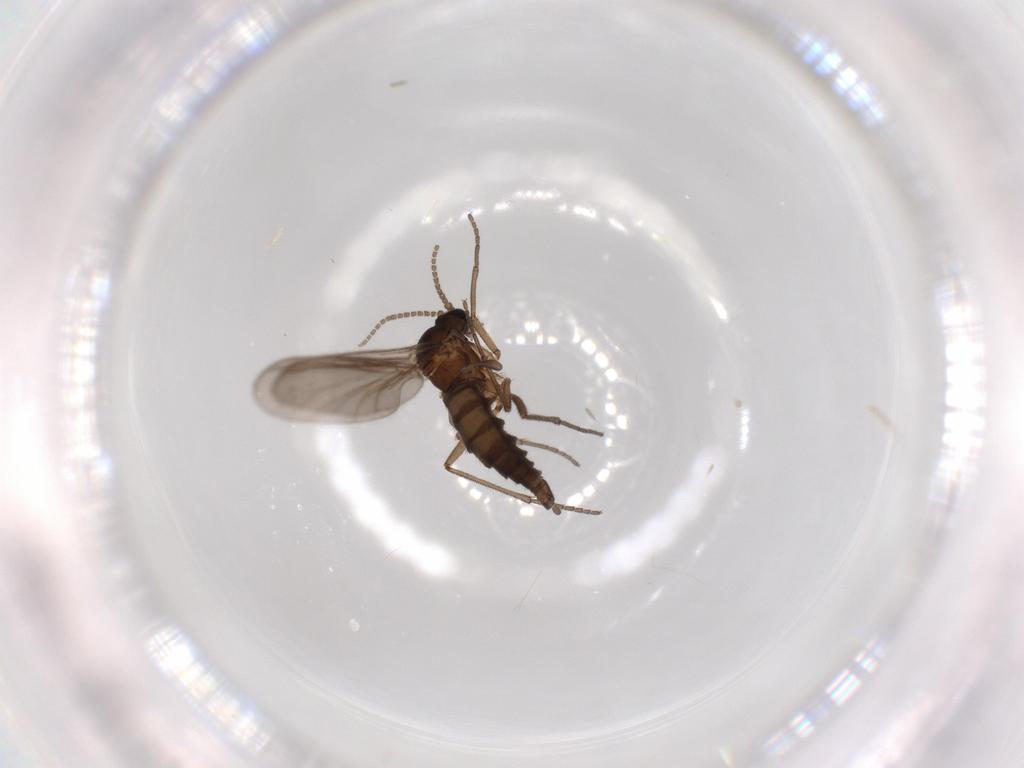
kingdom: Animalia
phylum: Arthropoda
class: Insecta
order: Diptera
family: Sciaridae
